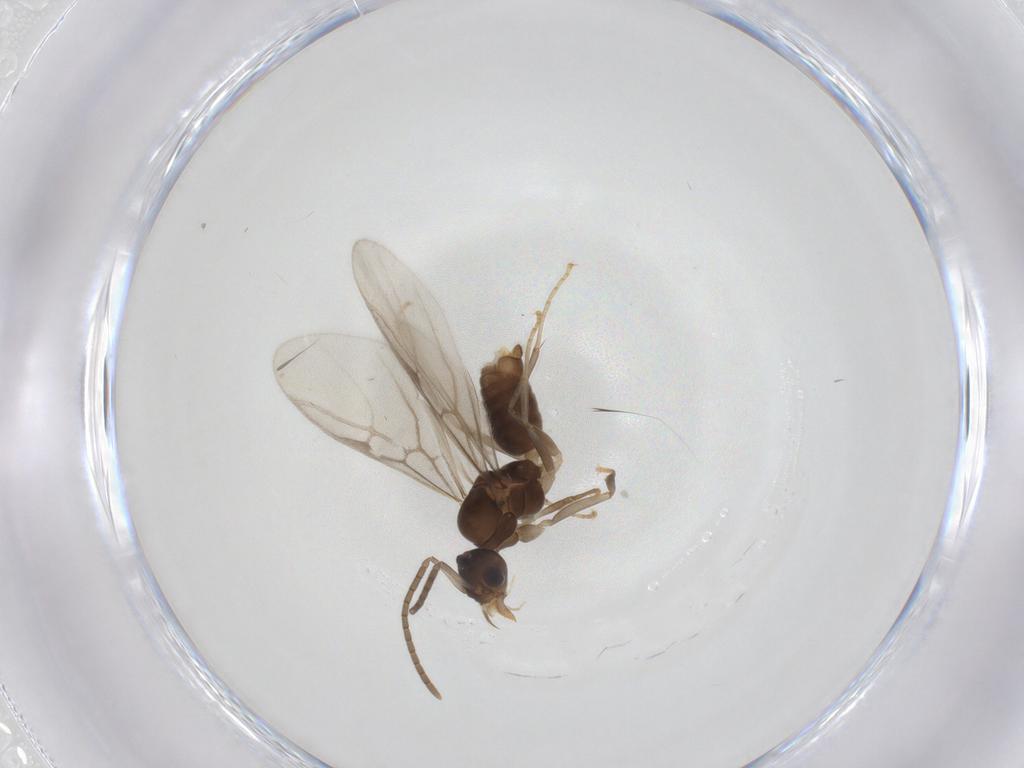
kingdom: Animalia
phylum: Arthropoda
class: Insecta
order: Hymenoptera
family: Formicidae
